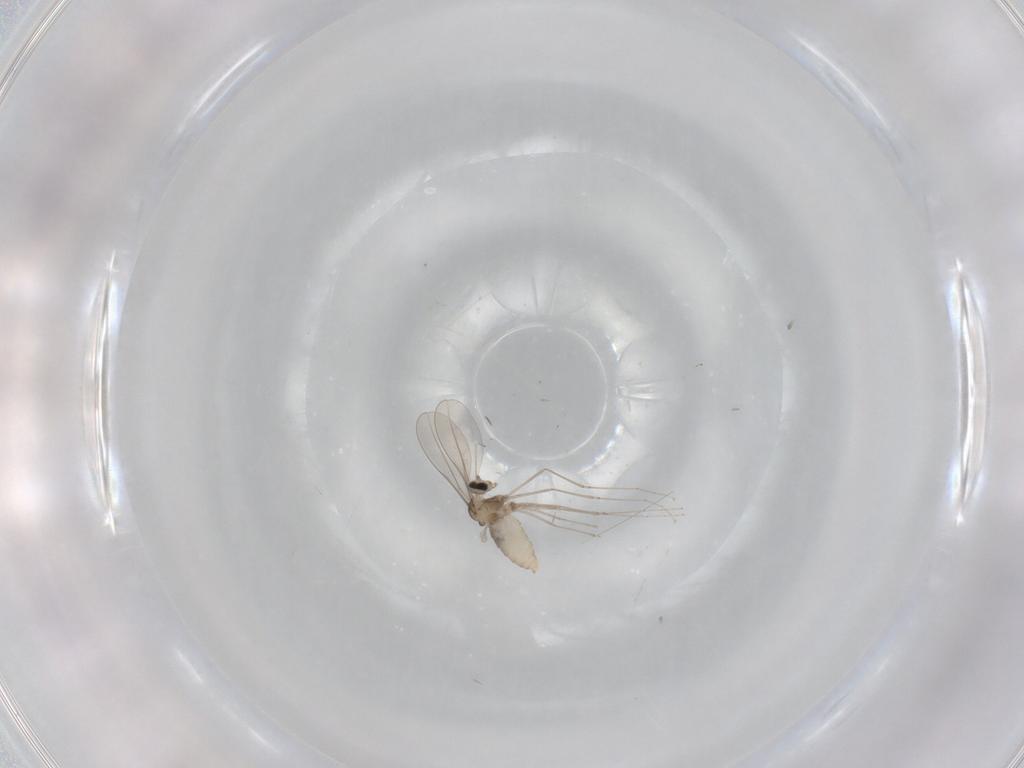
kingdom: Animalia
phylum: Arthropoda
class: Insecta
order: Diptera
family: Cecidomyiidae
